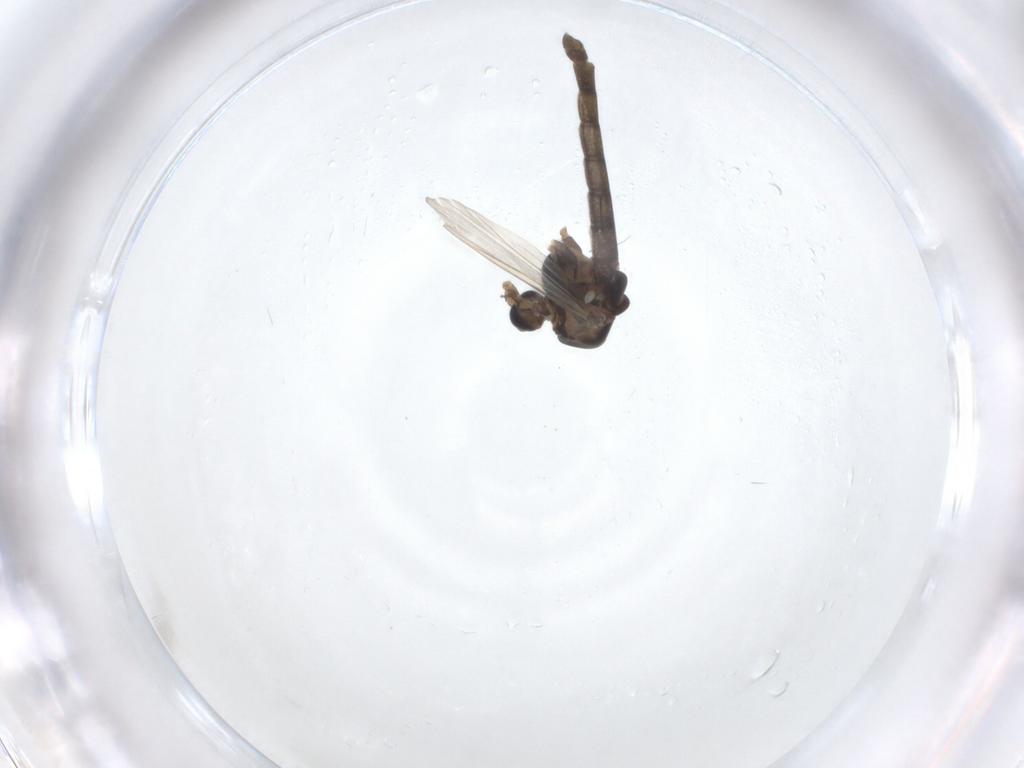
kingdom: Animalia
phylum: Arthropoda
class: Insecta
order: Diptera
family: Chironomidae
